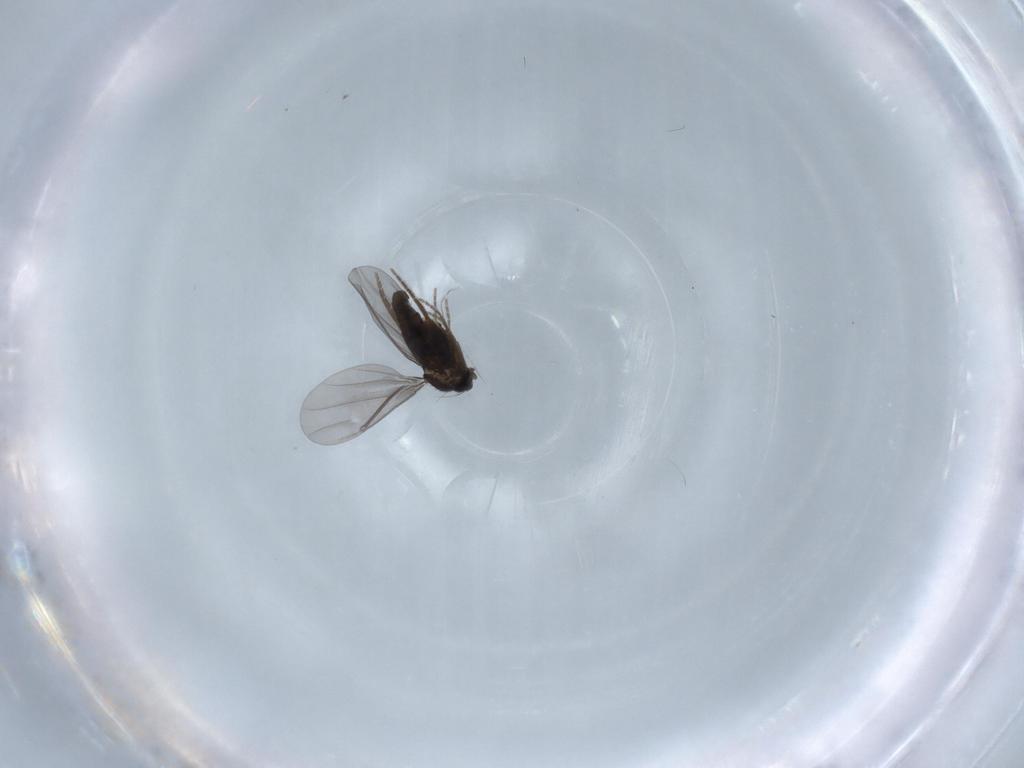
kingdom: Animalia
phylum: Arthropoda
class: Insecta
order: Diptera
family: Phoridae
